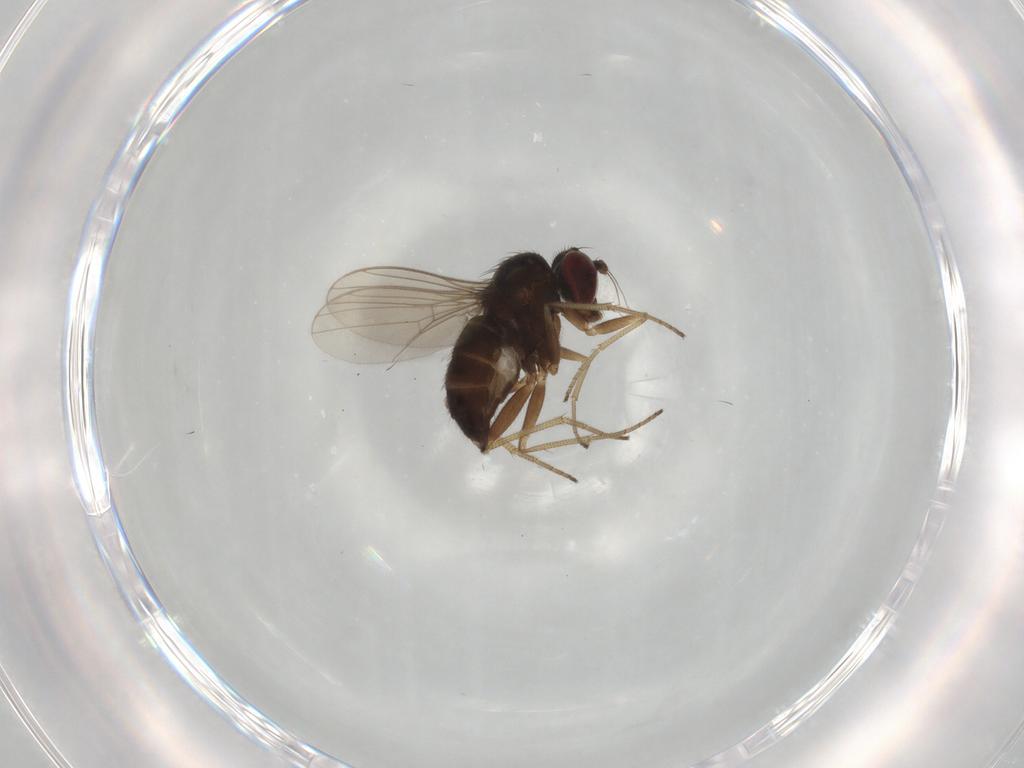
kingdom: Animalia
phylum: Arthropoda
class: Insecta
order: Diptera
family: Dolichopodidae
